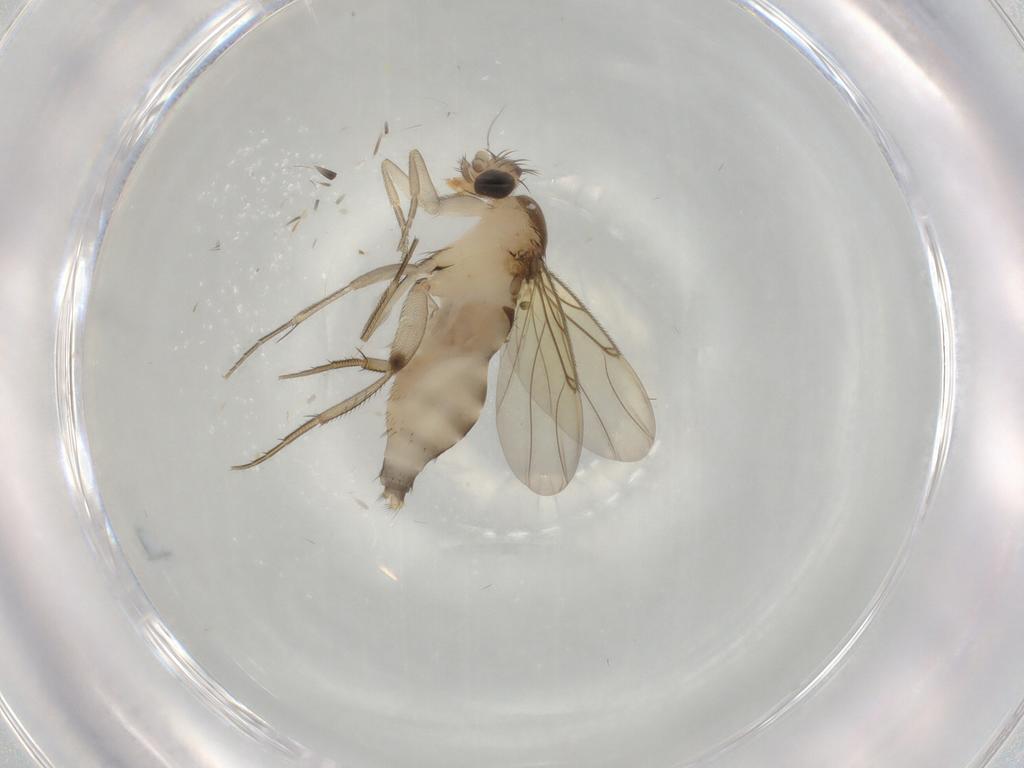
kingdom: Animalia
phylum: Arthropoda
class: Insecta
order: Diptera
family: Phoridae
